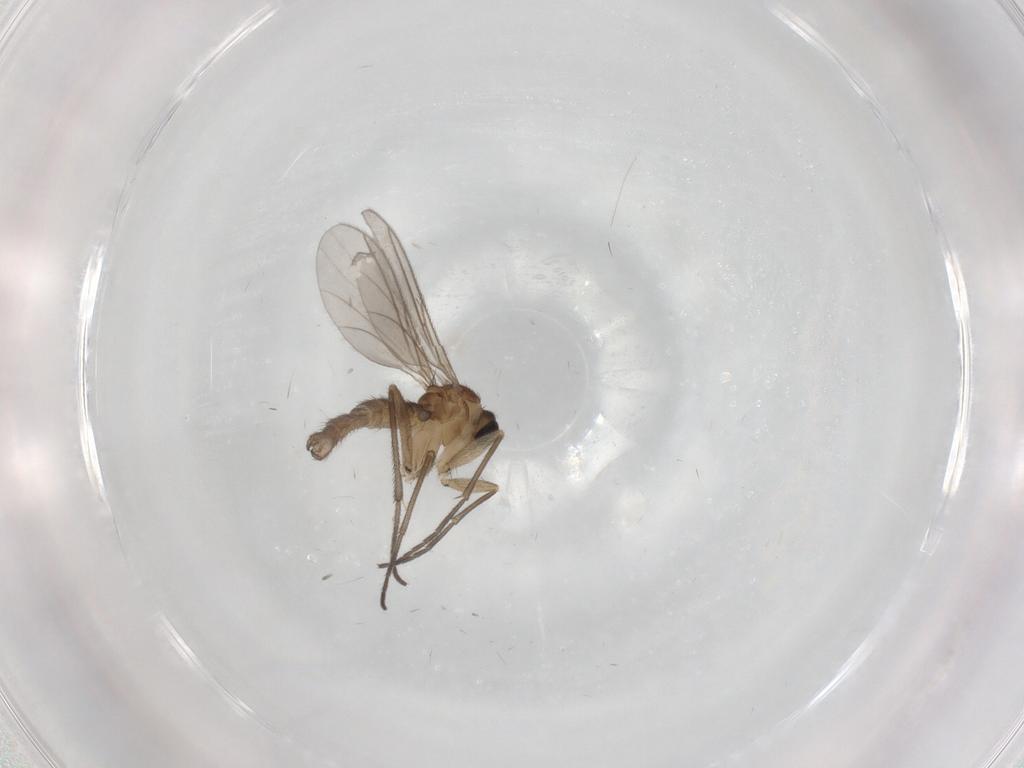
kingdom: Animalia
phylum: Arthropoda
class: Insecta
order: Diptera
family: Sciaridae
